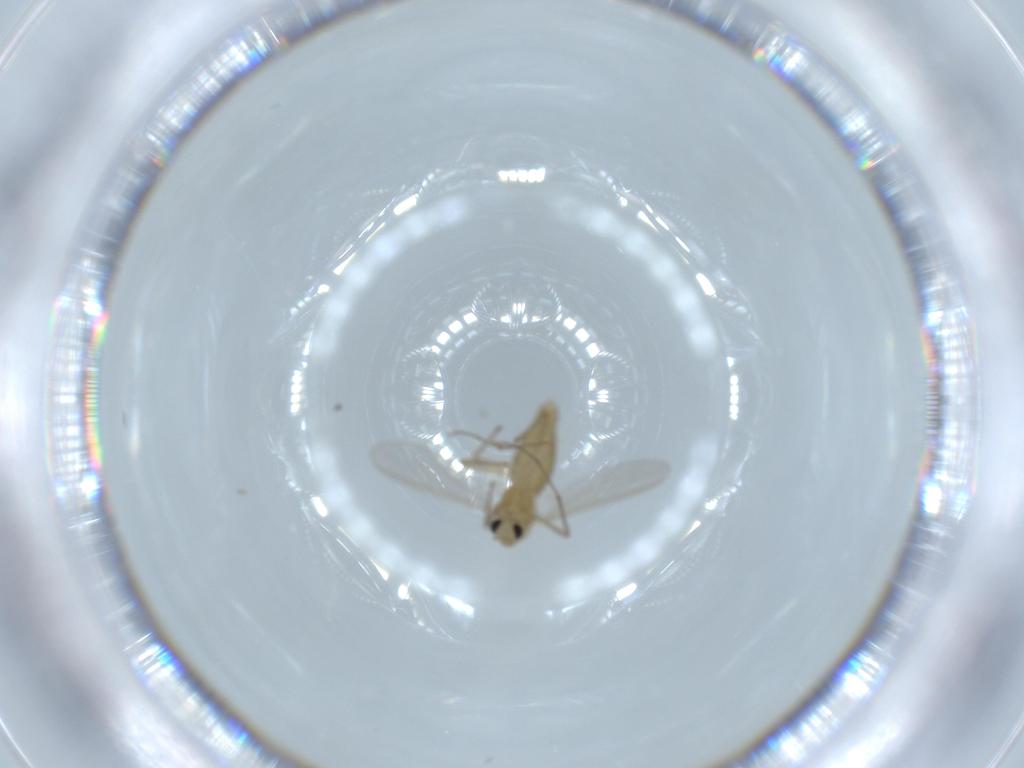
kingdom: Animalia
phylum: Arthropoda
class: Insecta
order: Diptera
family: Chironomidae
